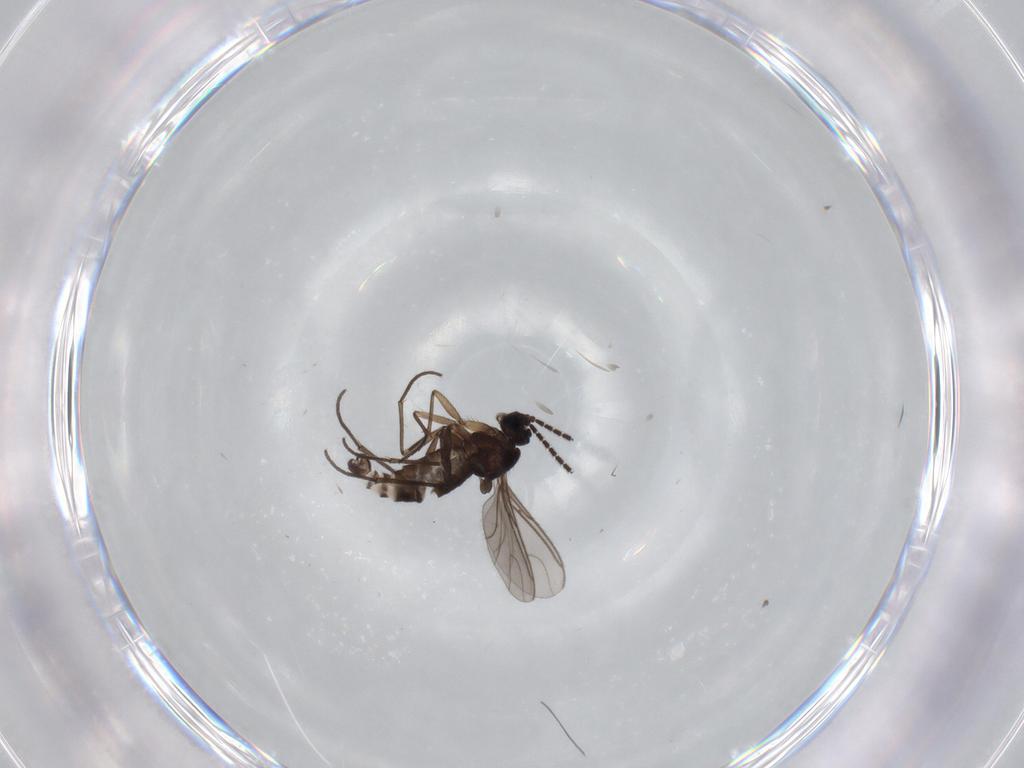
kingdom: Animalia
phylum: Arthropoda
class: Insecta
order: Diptera
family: Sciaridae
